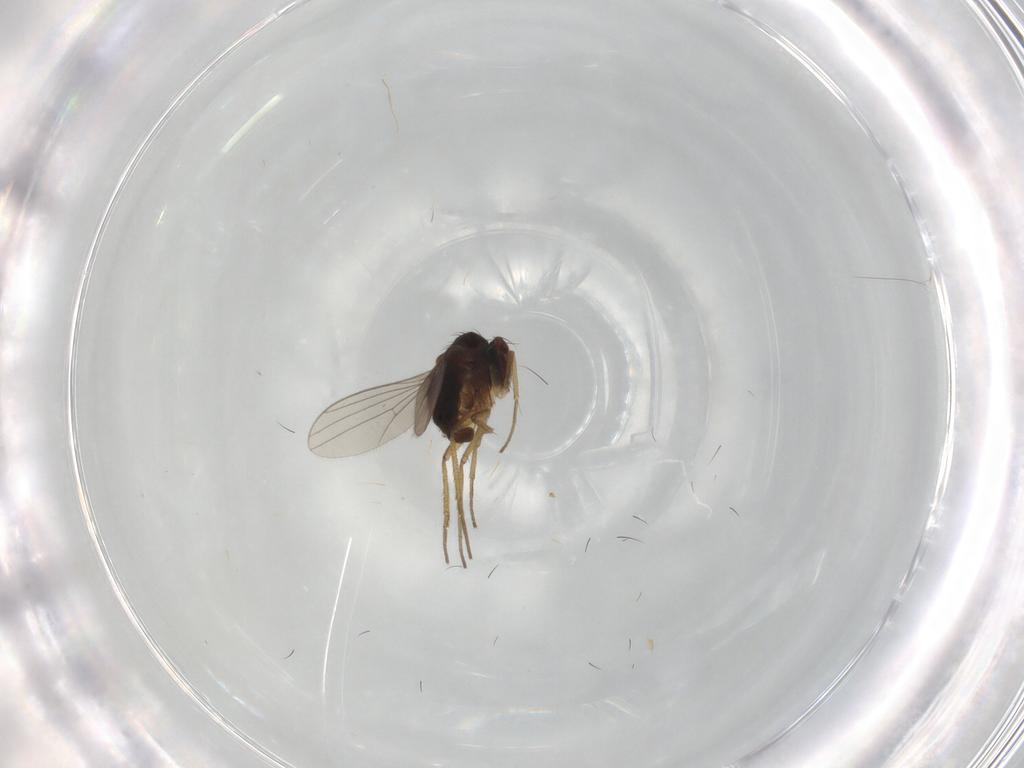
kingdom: Animalia
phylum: Arthropoda
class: Insecta
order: Diptera
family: Dolichopodidae
